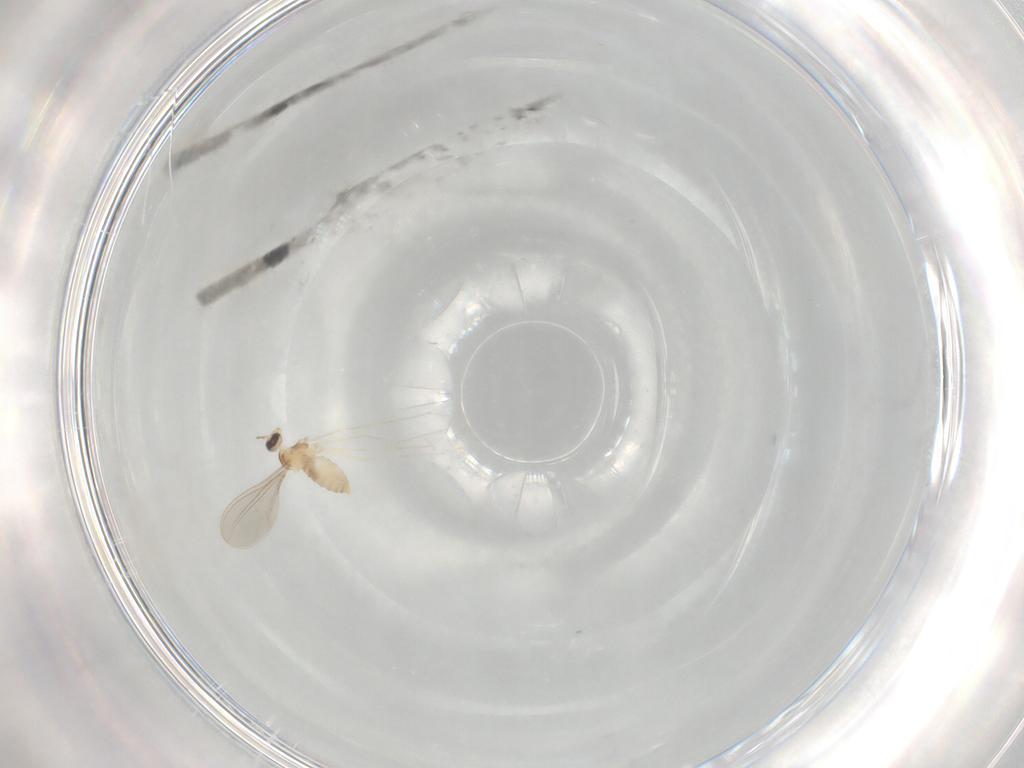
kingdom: Animalia
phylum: Arthropoda
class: Insecta
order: Diptera
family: Cecidomyiidae
